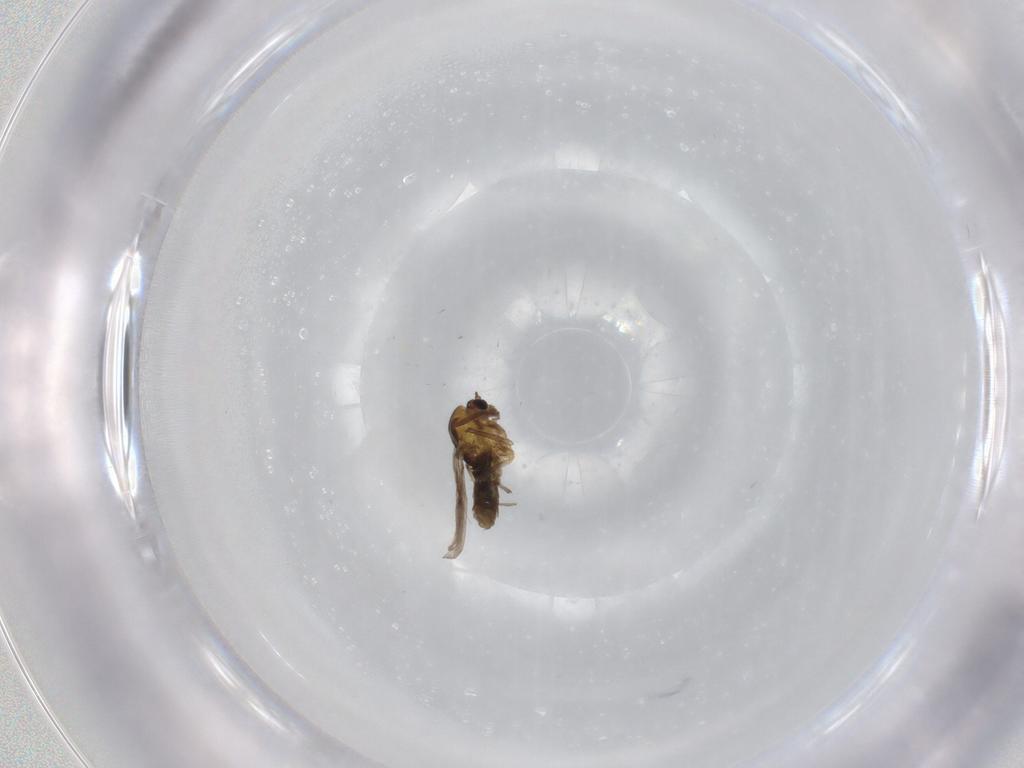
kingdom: Animalia
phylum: Arthropoda
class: Insecta
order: Diptera
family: Chironomidae
